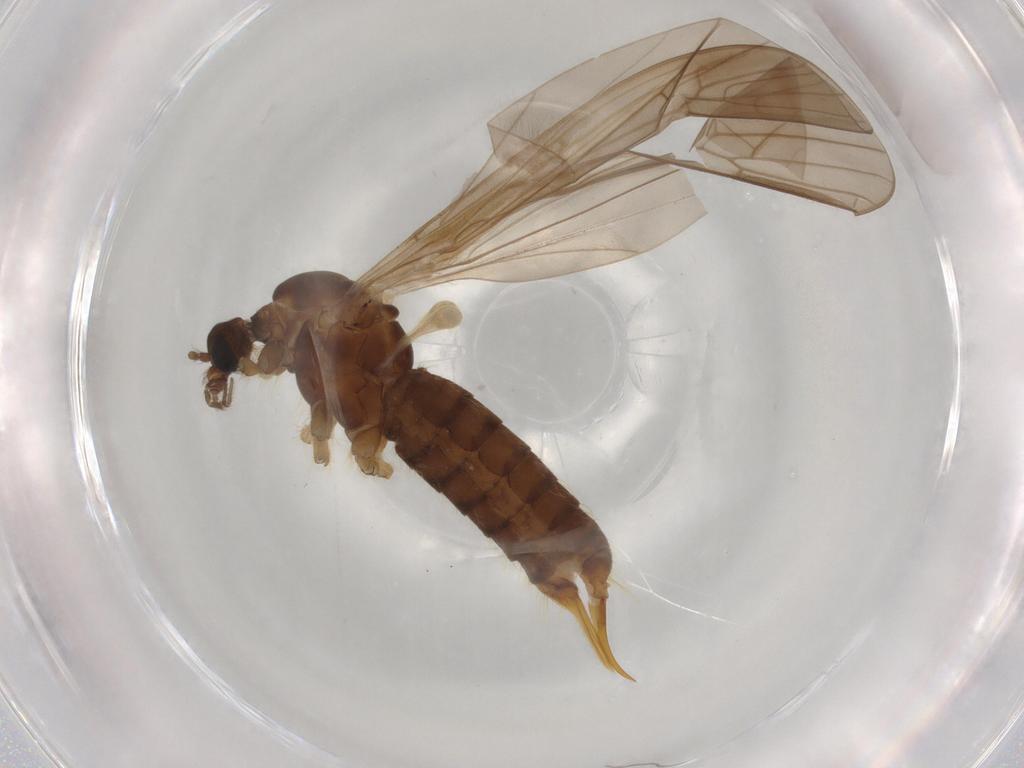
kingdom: Animalia
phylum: Arthropoda
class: Insecta
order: Diptera
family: Hybotidae
